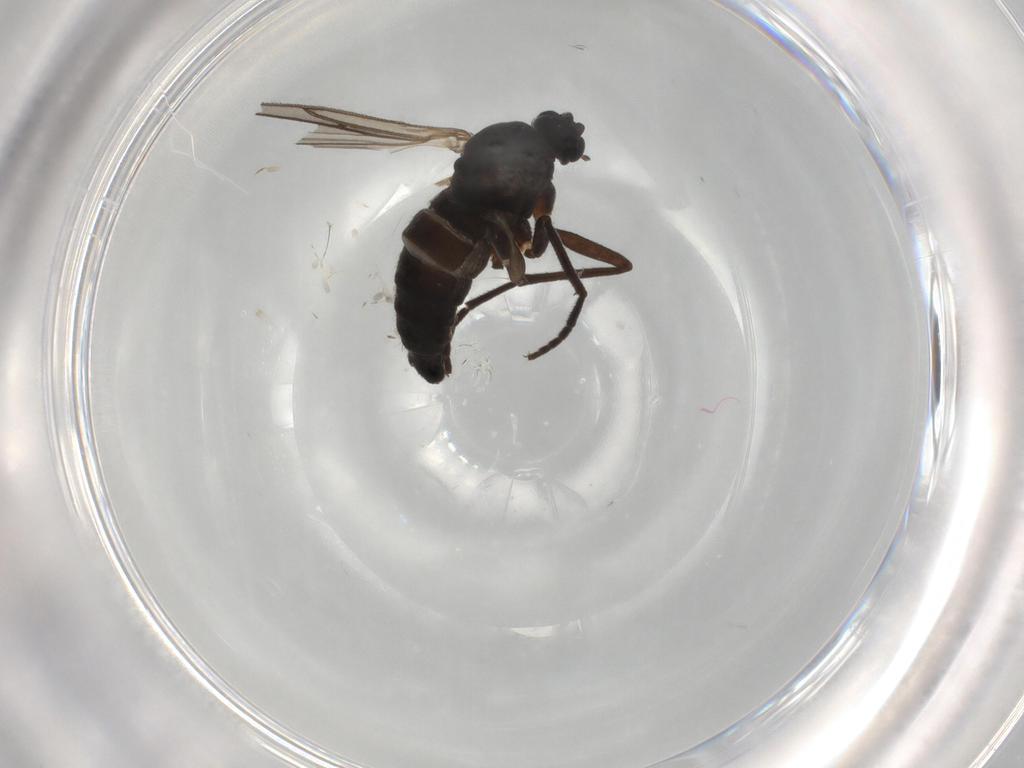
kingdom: Animalia
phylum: Arthropoda
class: Insecta
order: Diptera
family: Sciaridae
